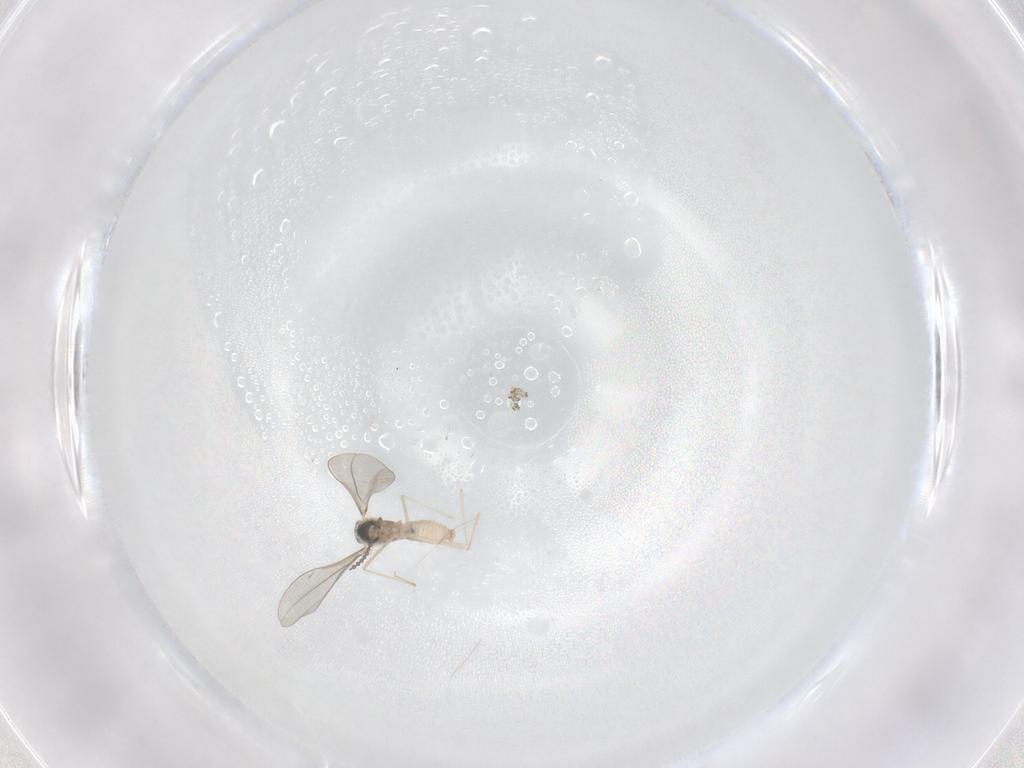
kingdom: Animalia
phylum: Arthropoda
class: Insecta
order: Diptera
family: Chironomidae
